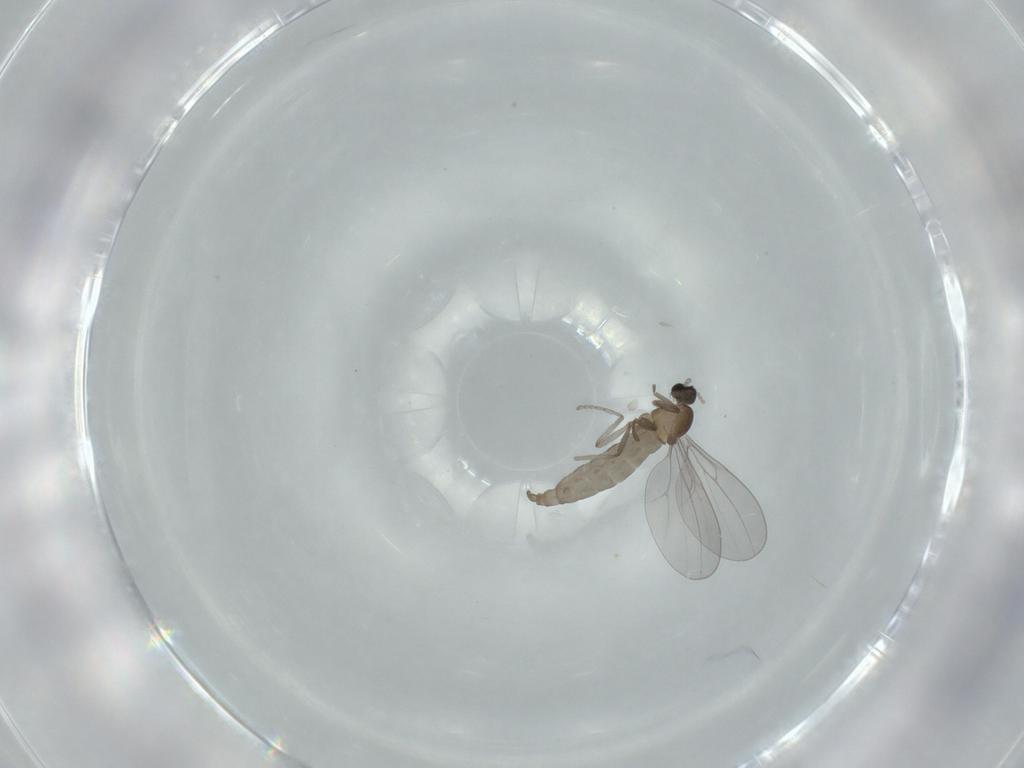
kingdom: Animalia
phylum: Arthropoda
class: Insecta
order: Diptera
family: Cecidomyiidae
